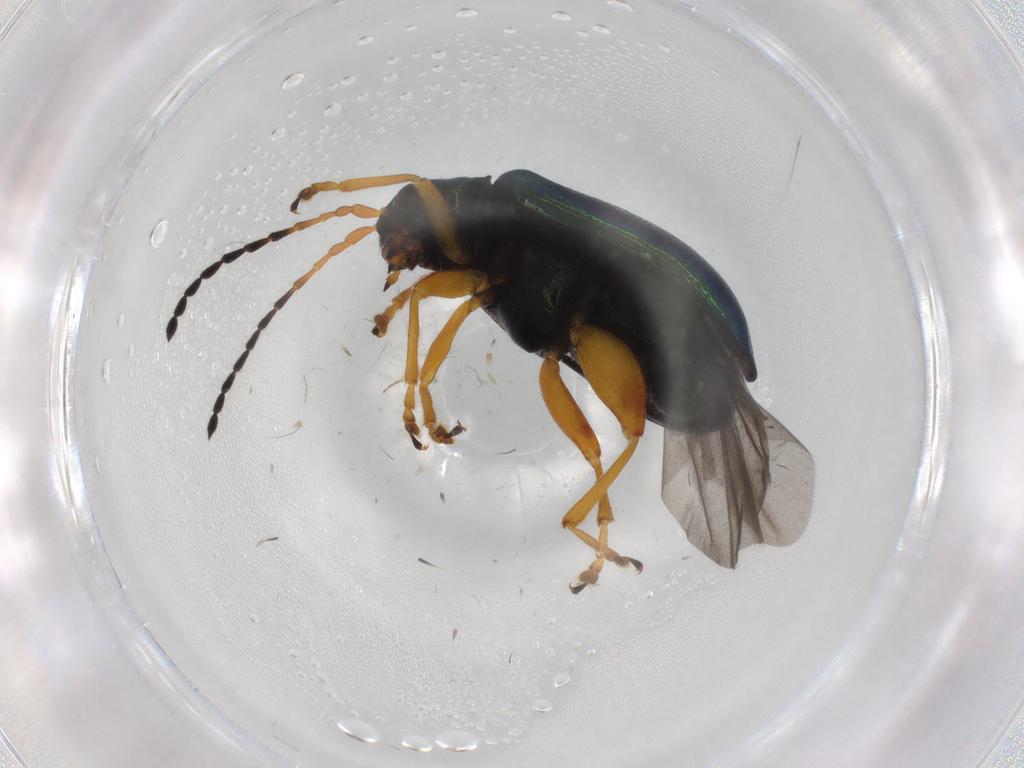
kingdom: Animalia
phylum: Arthropoda
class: Insecta
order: Coleoptera
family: Chrysomelidae
